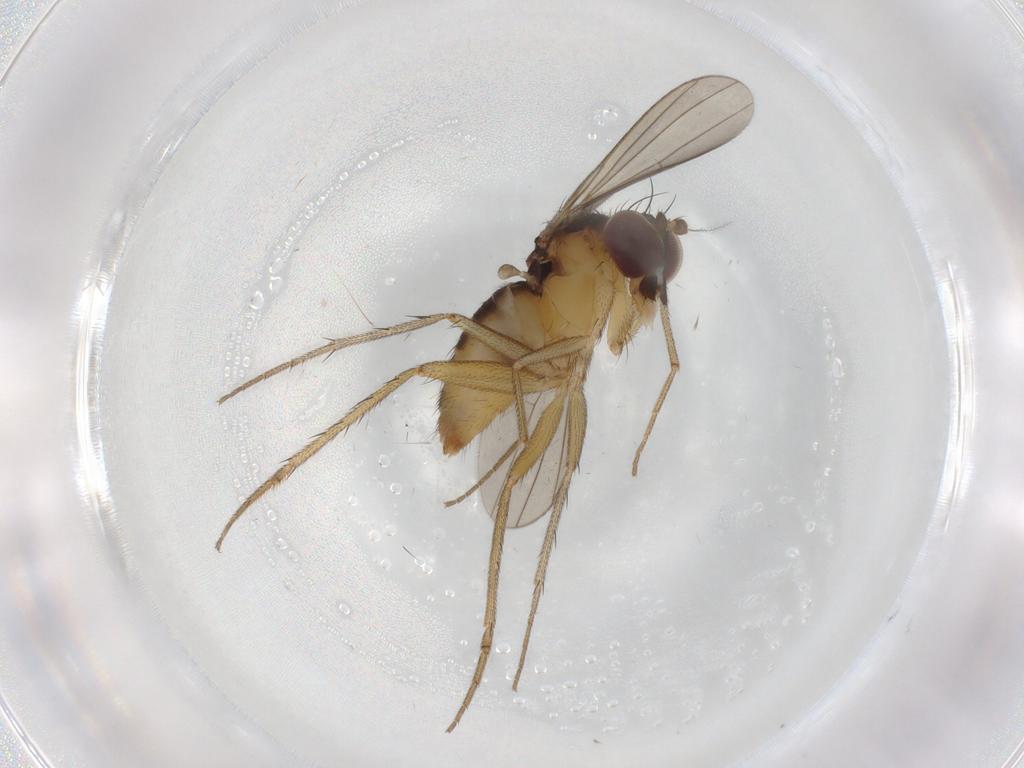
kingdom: Animalia
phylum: Arthropoda
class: Insecta
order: Diptera
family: Dolichopodidae
